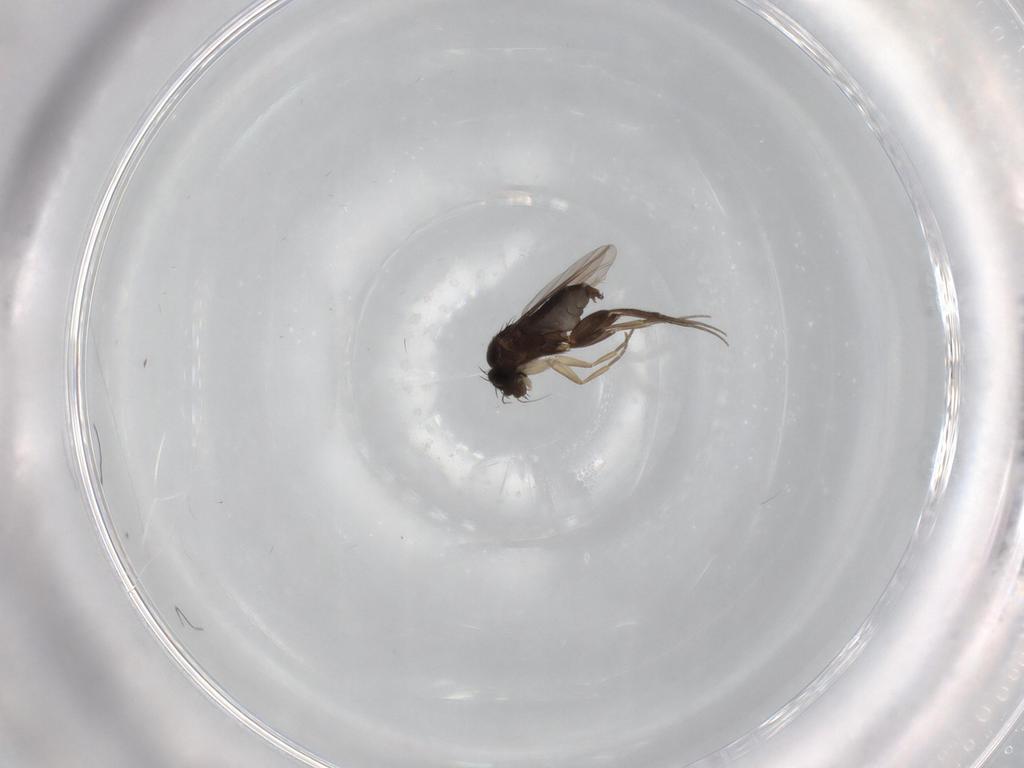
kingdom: Animalia
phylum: Arthropoda
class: Insecta
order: Diptera
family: Phoridae
